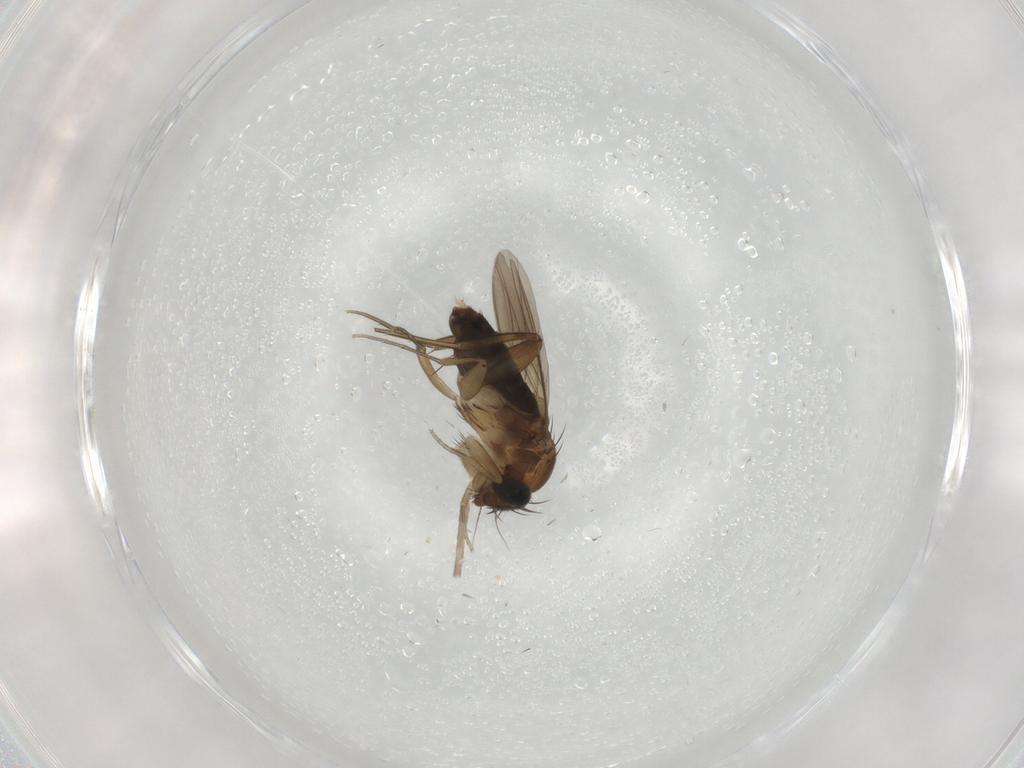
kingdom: Animalia
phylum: Arthropoda
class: Insecta
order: Diptera
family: Phoridae
